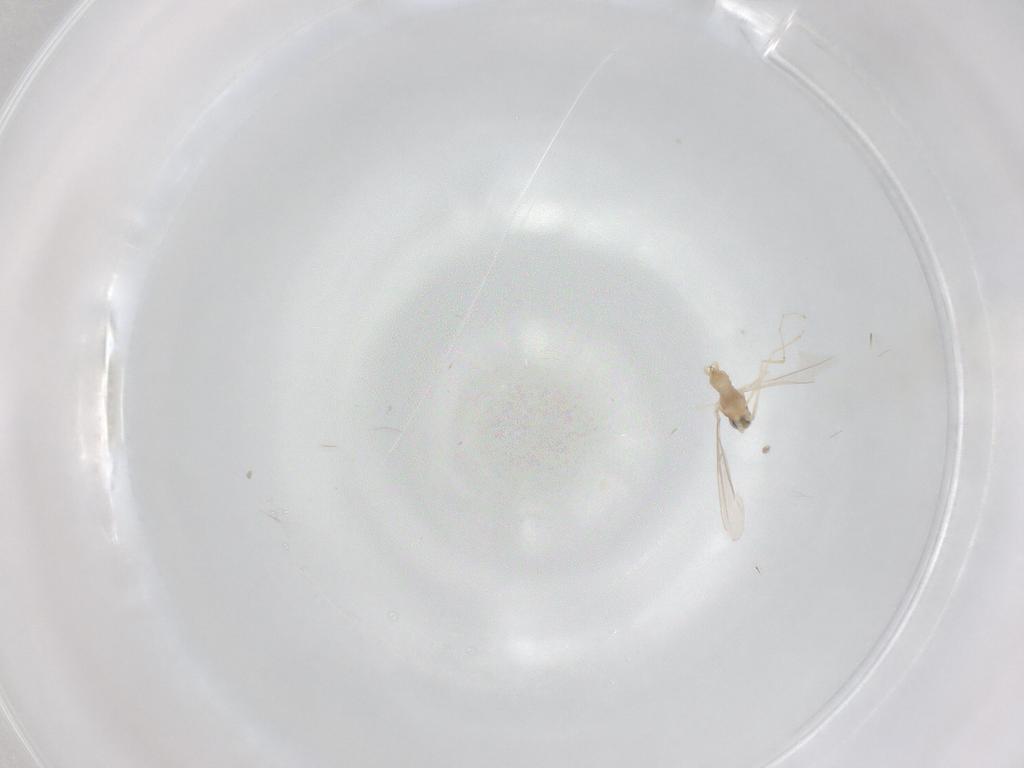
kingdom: Animalia
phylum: Arthropoda
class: Insecta
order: Diptera
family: Cecidomyiidae
